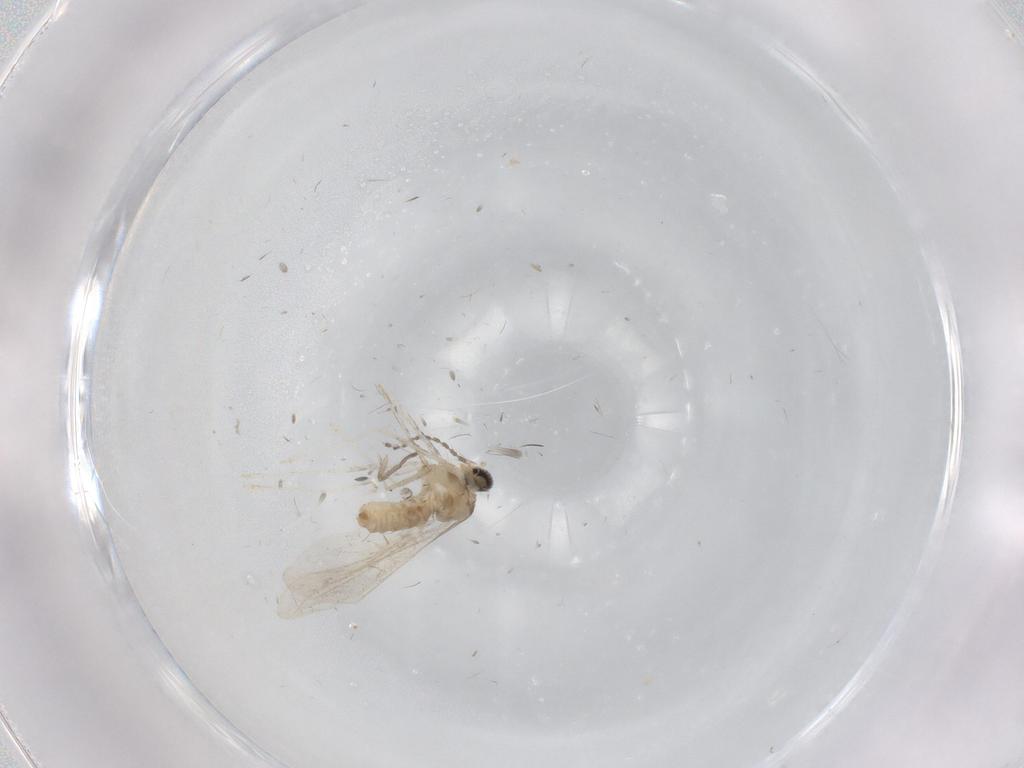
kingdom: Animalia
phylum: Arthropoda
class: Insecta
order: Diptera
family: Cecidomyiidae
